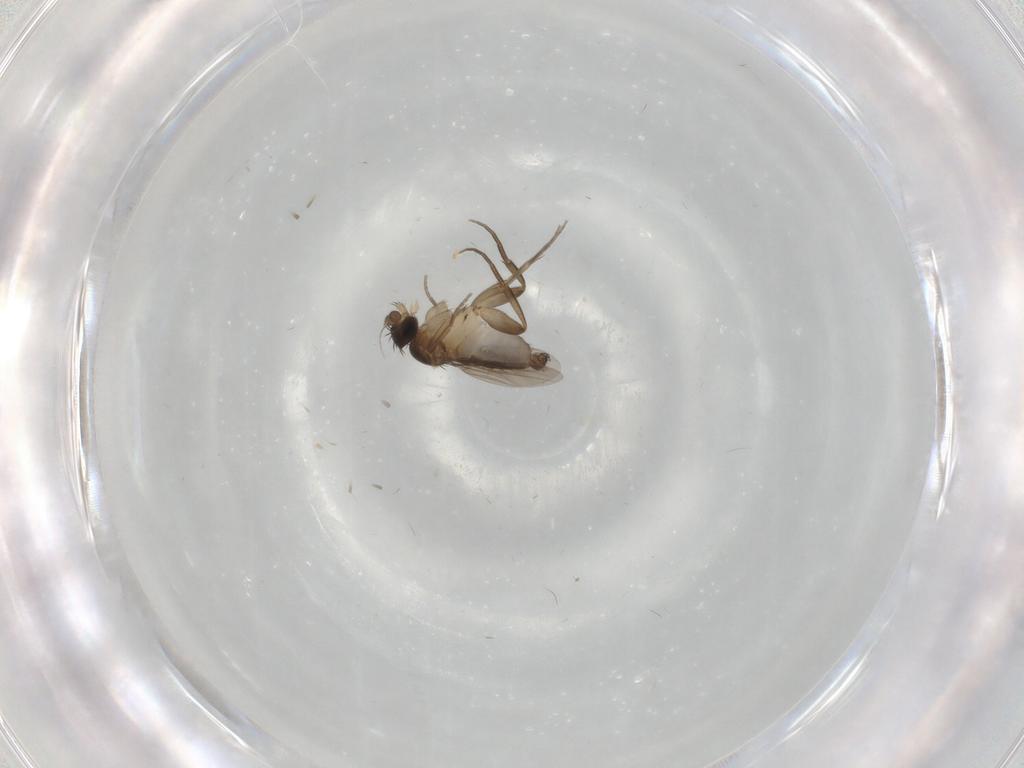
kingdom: Animalia
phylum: Arthropoda
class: Insecta
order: Diptera
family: Phoridae
